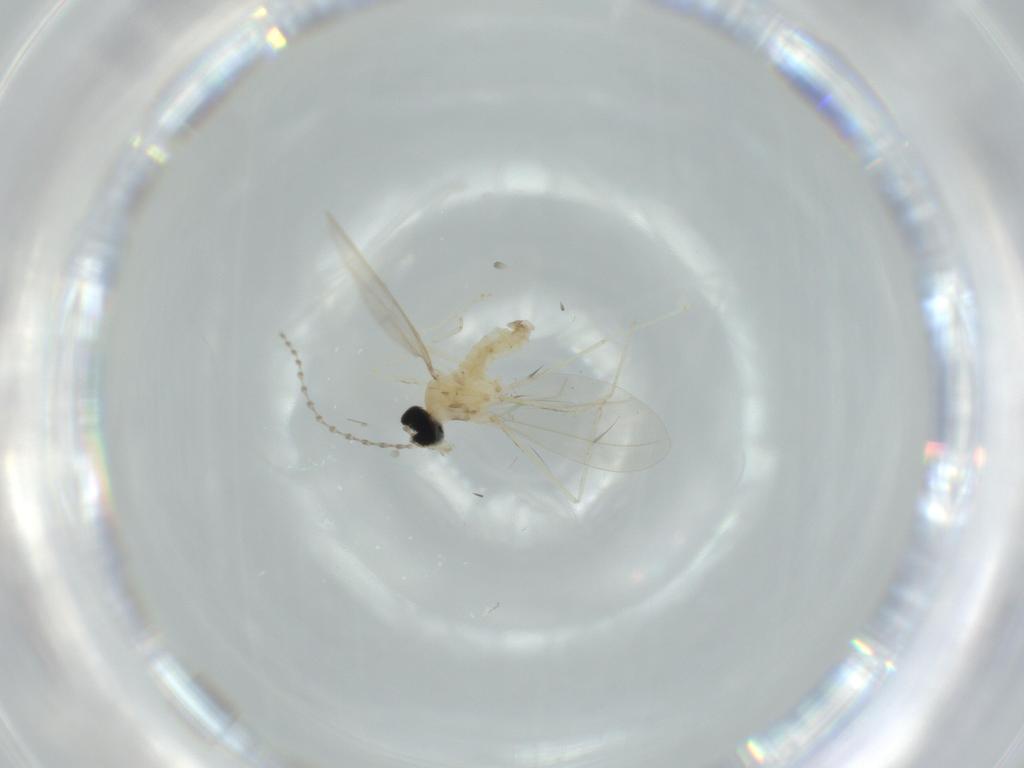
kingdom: Animalia
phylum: Arthropoda
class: Insecta
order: Diptera
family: Cecidomyiidae
